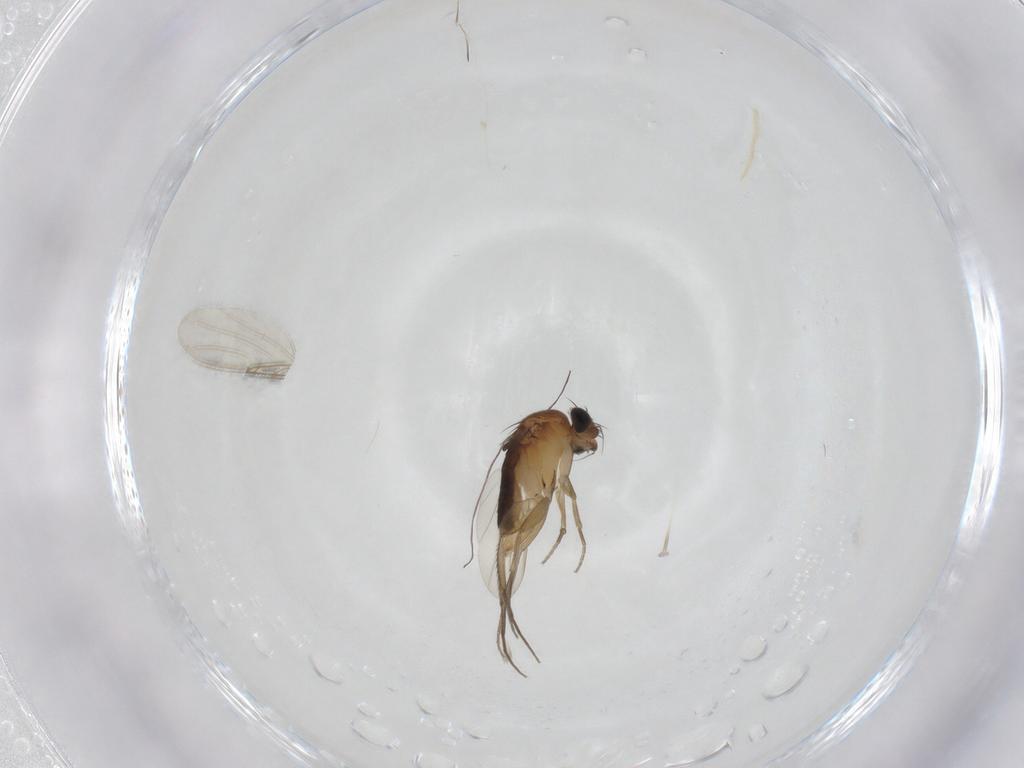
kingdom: Animalia
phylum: Arthropoda
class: Insecta
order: Diptera
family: Phoridae
